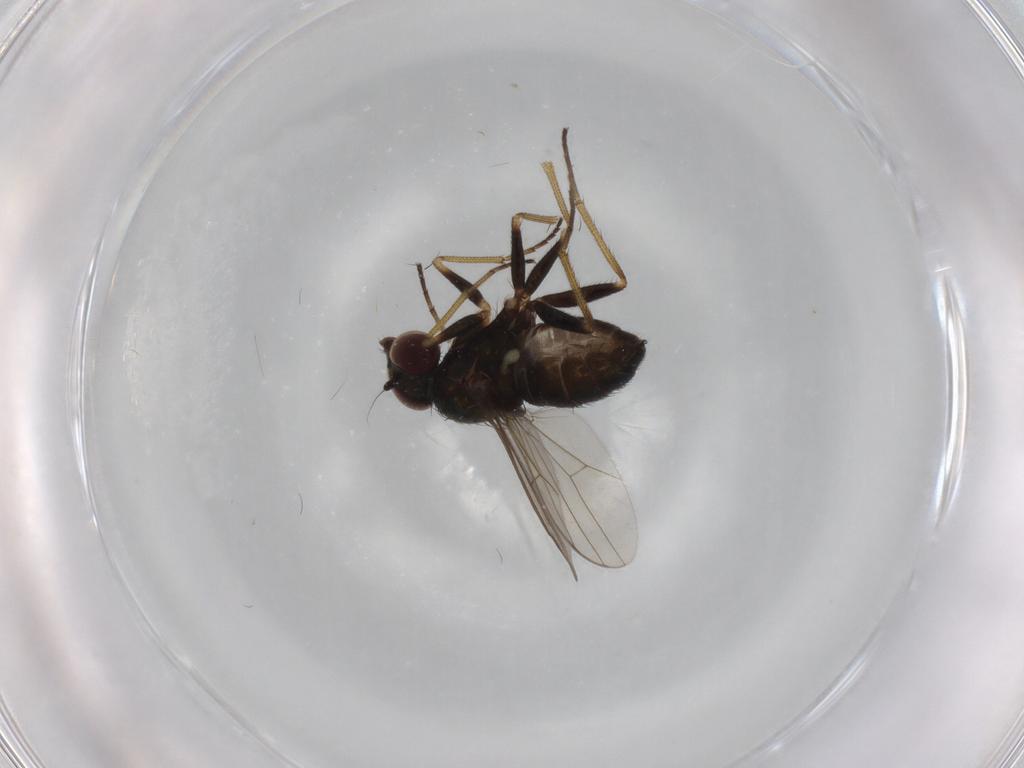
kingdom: Animalia
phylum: Arthropoda
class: Insecta
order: Diptera
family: Dolichopodidae
